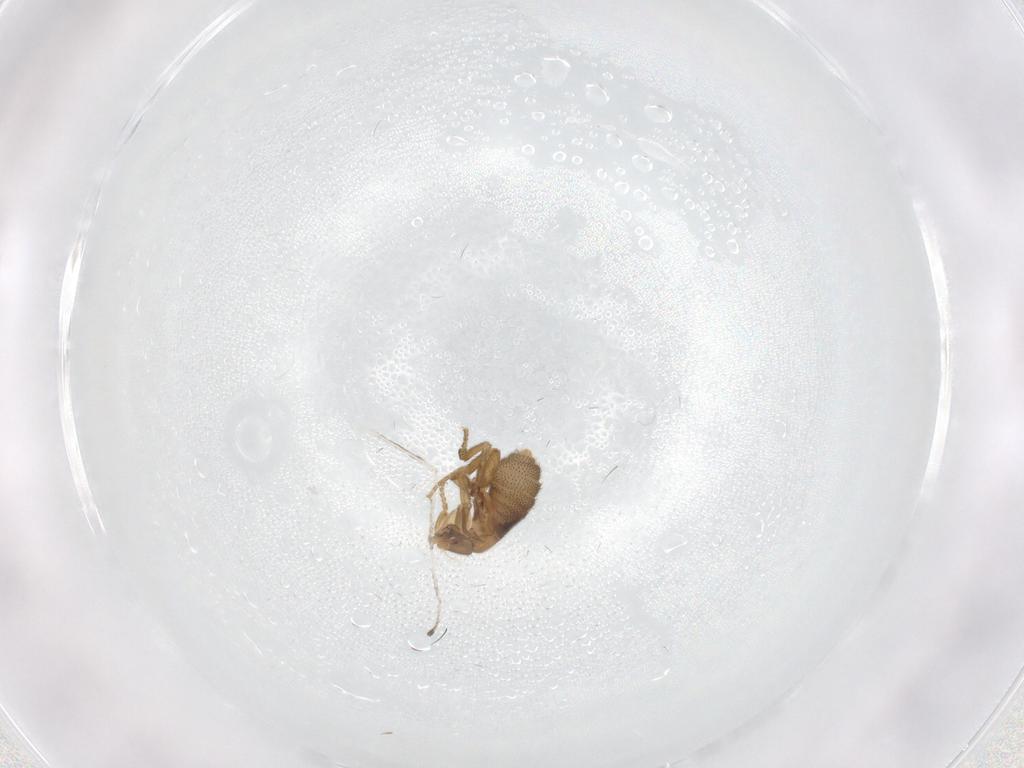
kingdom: Animalia
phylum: Arthropoda
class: Insecta
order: Diptera
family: Phoridae
